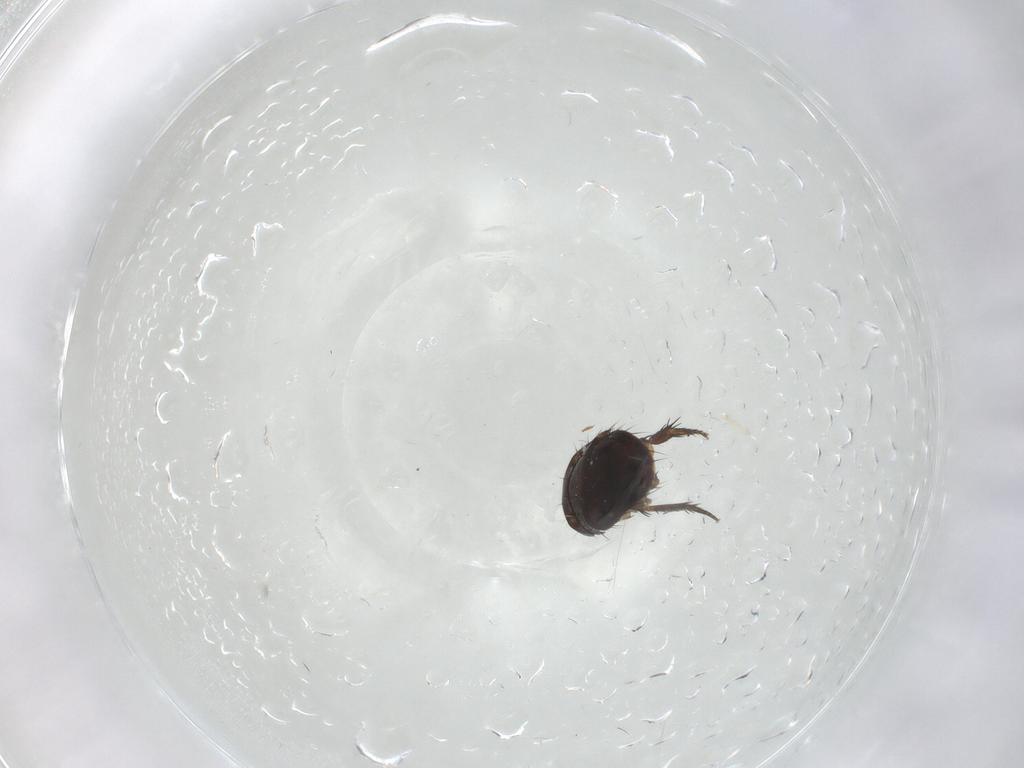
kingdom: Animalia
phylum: Arthropoda
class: Insecta
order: Diptera
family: Phoridae
